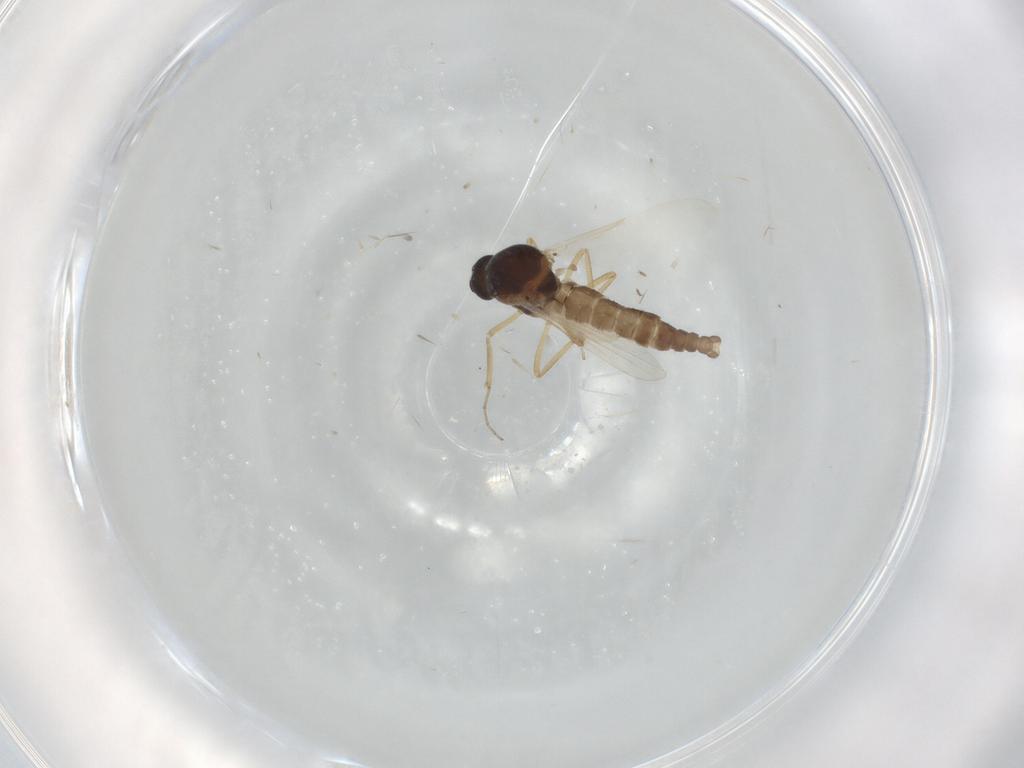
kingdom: Animalia
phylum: Arthropoda
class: Insecta
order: Diptera
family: Ceratopogonidae
